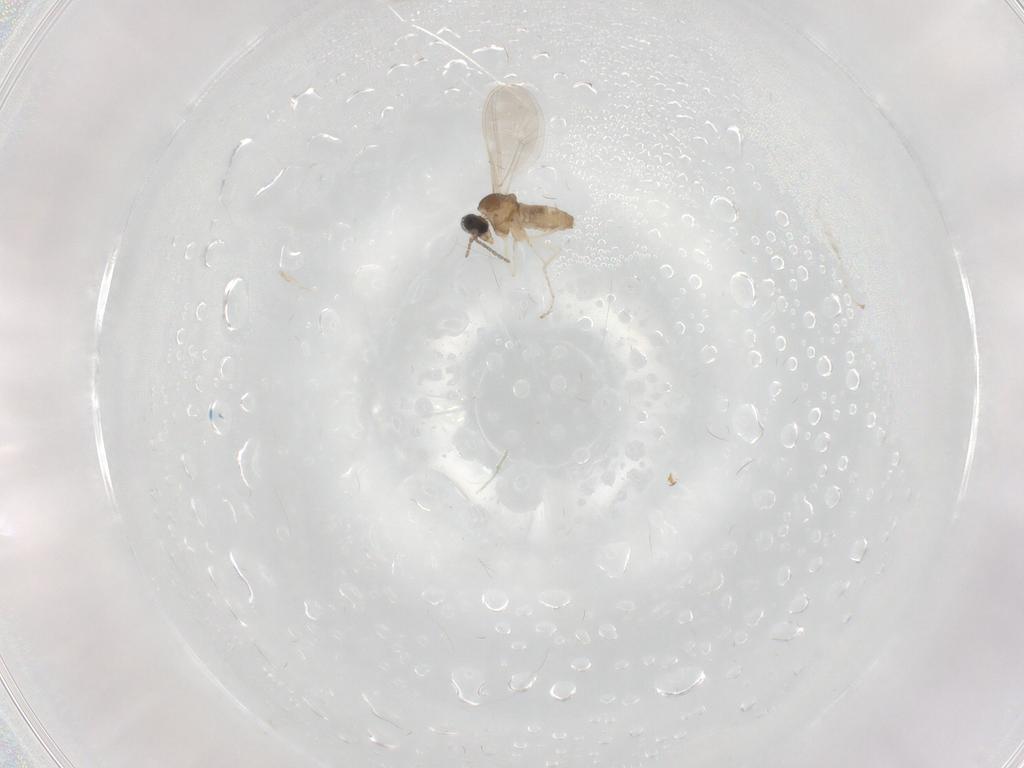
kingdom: Animalia
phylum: Arthropoda
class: Insecta
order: Diptera
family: Cecidomyiidae
